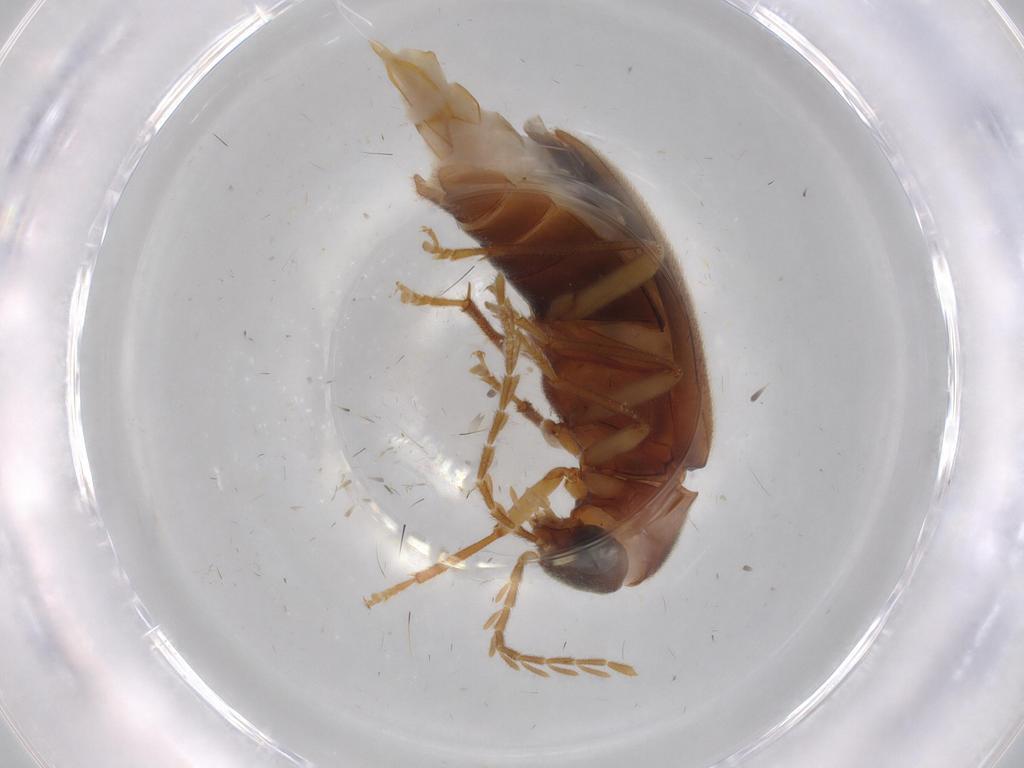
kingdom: Animalia
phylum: Arthropoda
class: Insecta
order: Coleoptera
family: Ptilodactylidae
